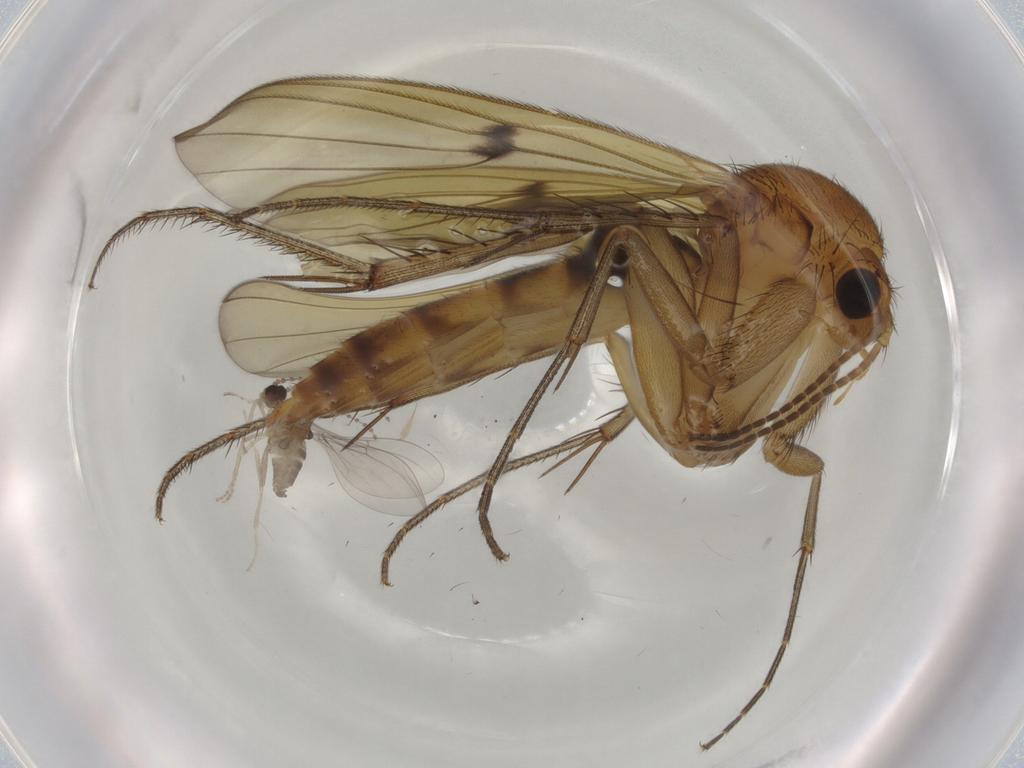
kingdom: Animalia
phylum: Arthropoda
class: Insecta
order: Diptera
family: Cecidomyiidae
